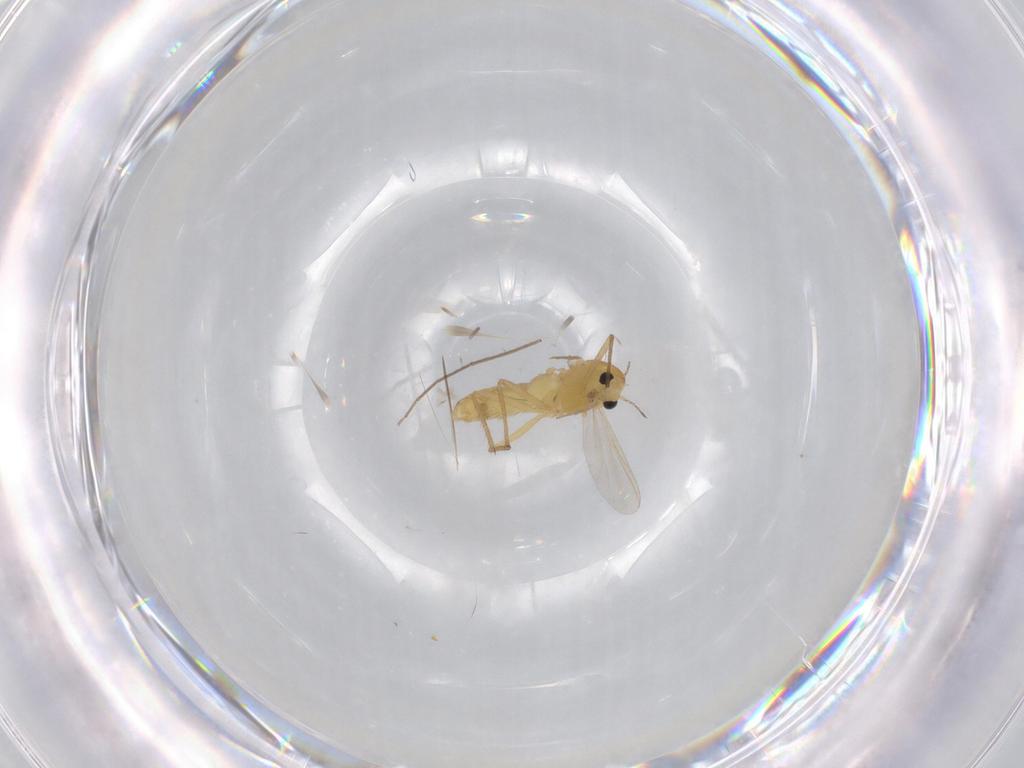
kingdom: Animalia
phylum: Arthropoda
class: Insecta
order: Diptera
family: Chironomidae
